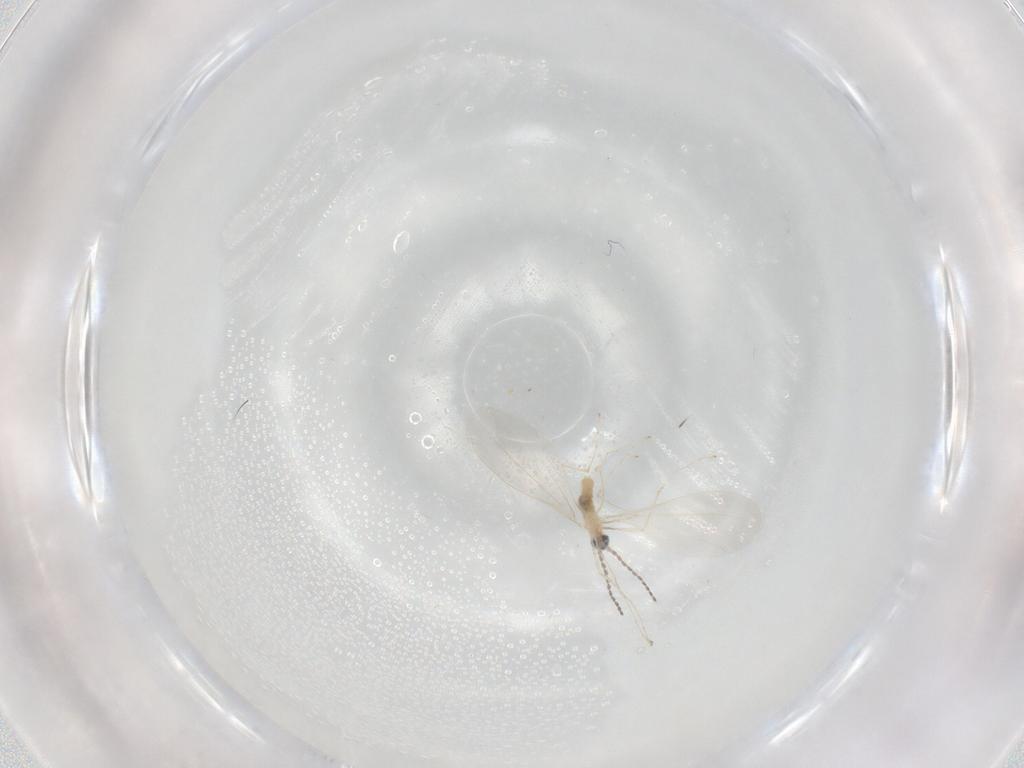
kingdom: Animalia
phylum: Arthropoda
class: Insecta
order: Diptera
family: Cecidomyiidae
